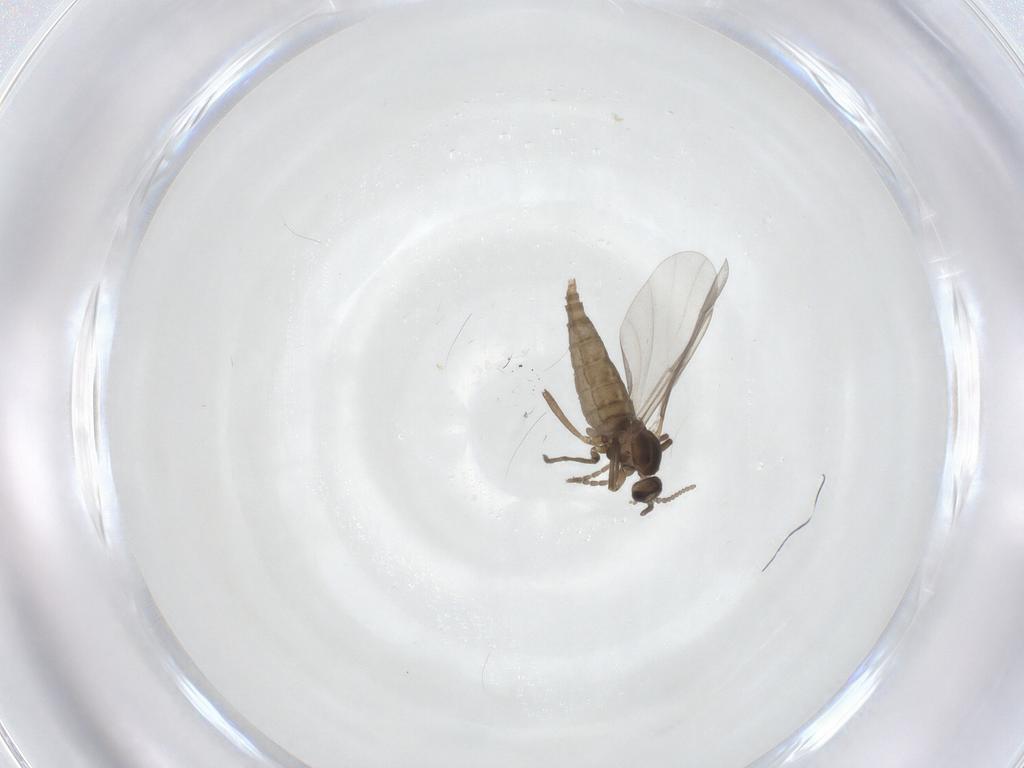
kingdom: Animalia
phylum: Arthropoda
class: Insecta
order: Diptera
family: Cecidomyiidae
